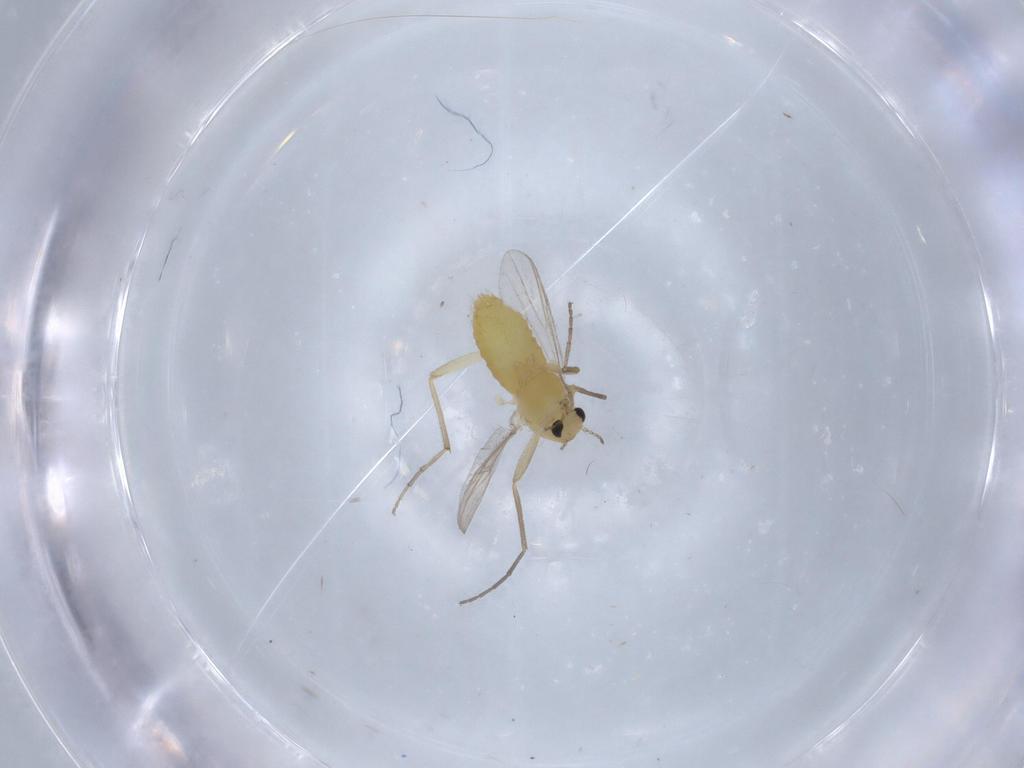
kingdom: Animalia
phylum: Arthropoda
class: Insecta
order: Diptera
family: Chironomidae
